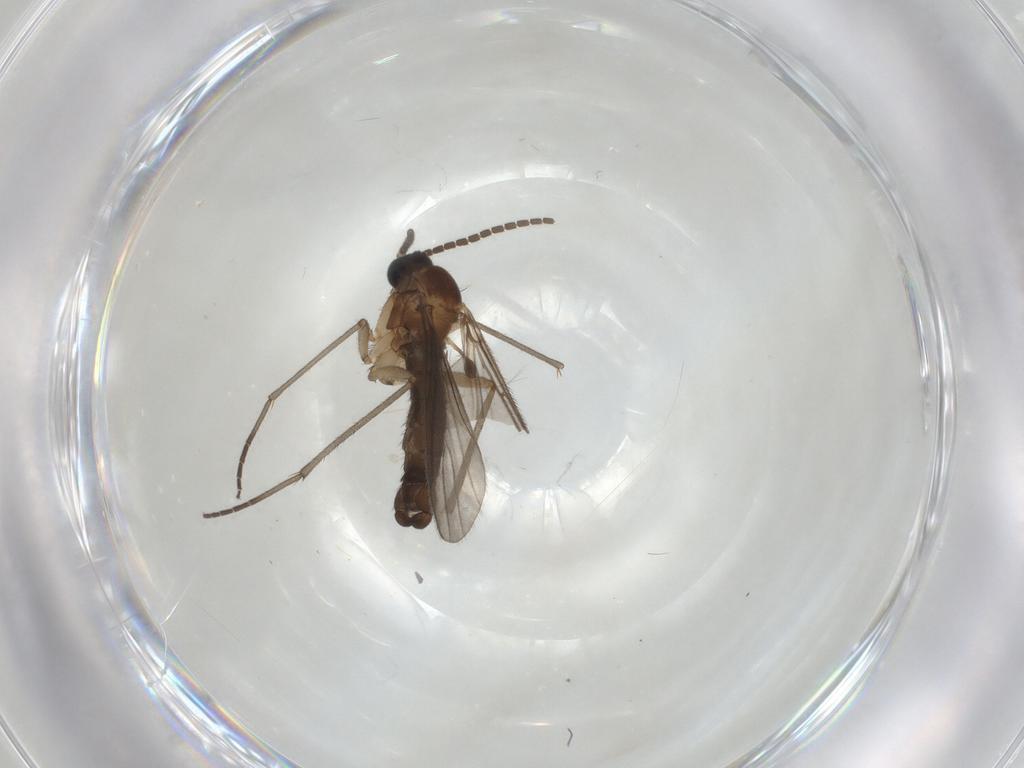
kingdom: Animalia
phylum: Arthropoda
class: Insecta
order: Diptera
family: Sciaridae
